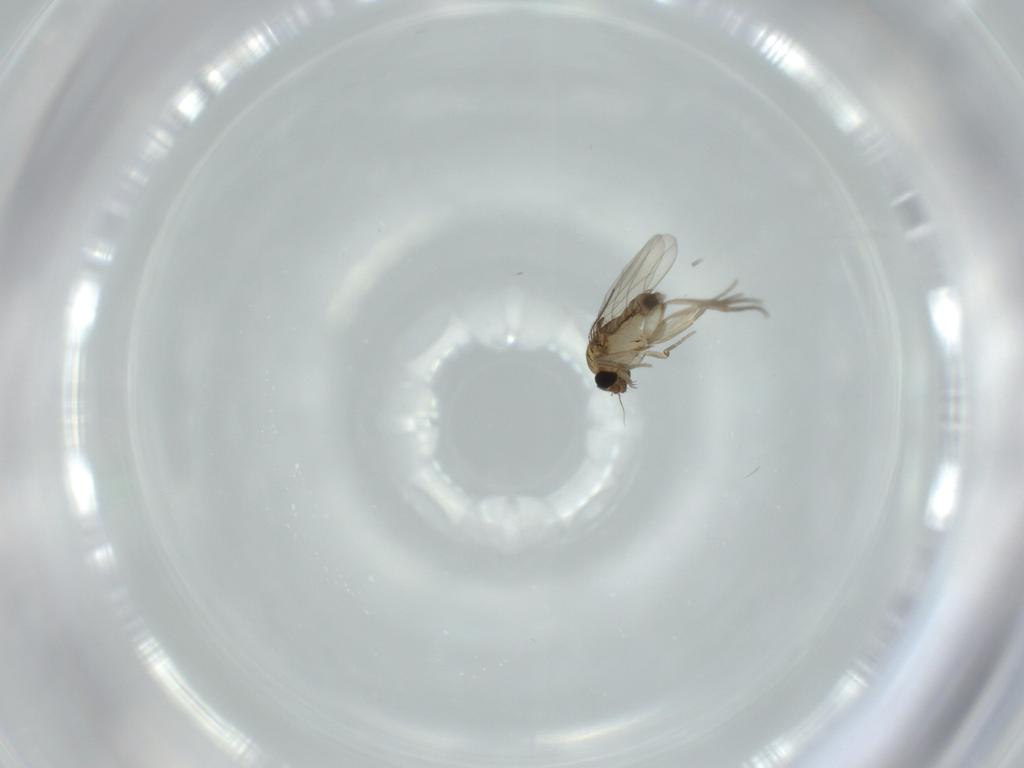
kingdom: Animalia
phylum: Arthropoda
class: Insecta
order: Diptera
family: Phoridae
